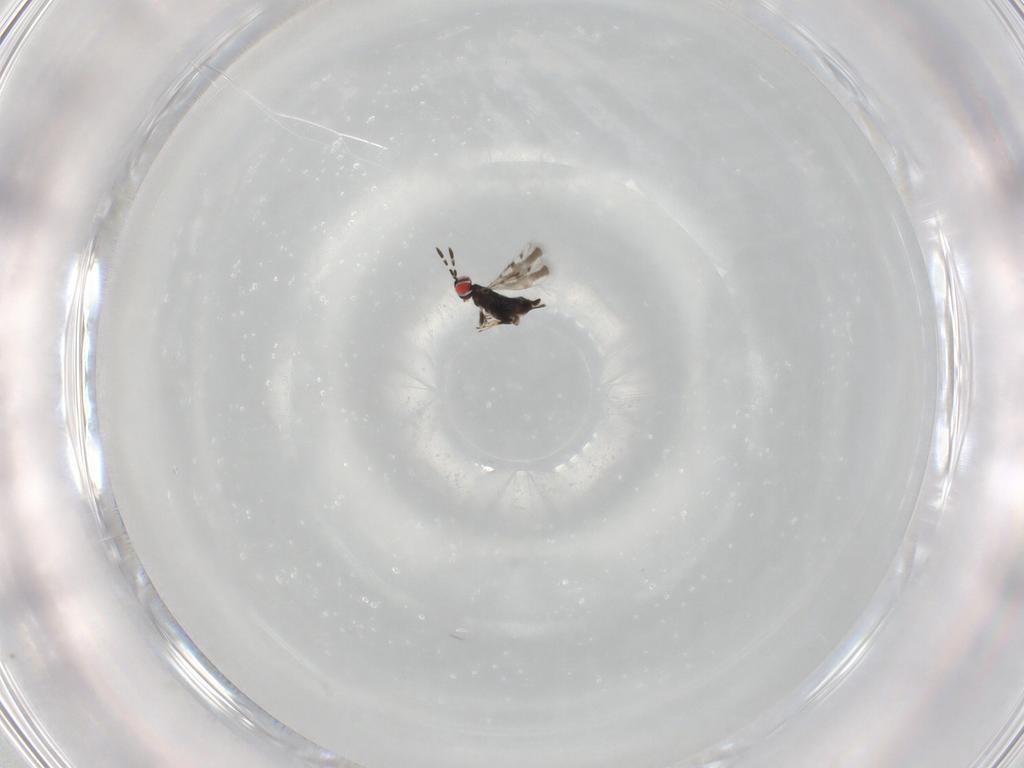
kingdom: Animalia
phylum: Arthropoda
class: Insecta
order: Hymenoptera
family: Azotidae
